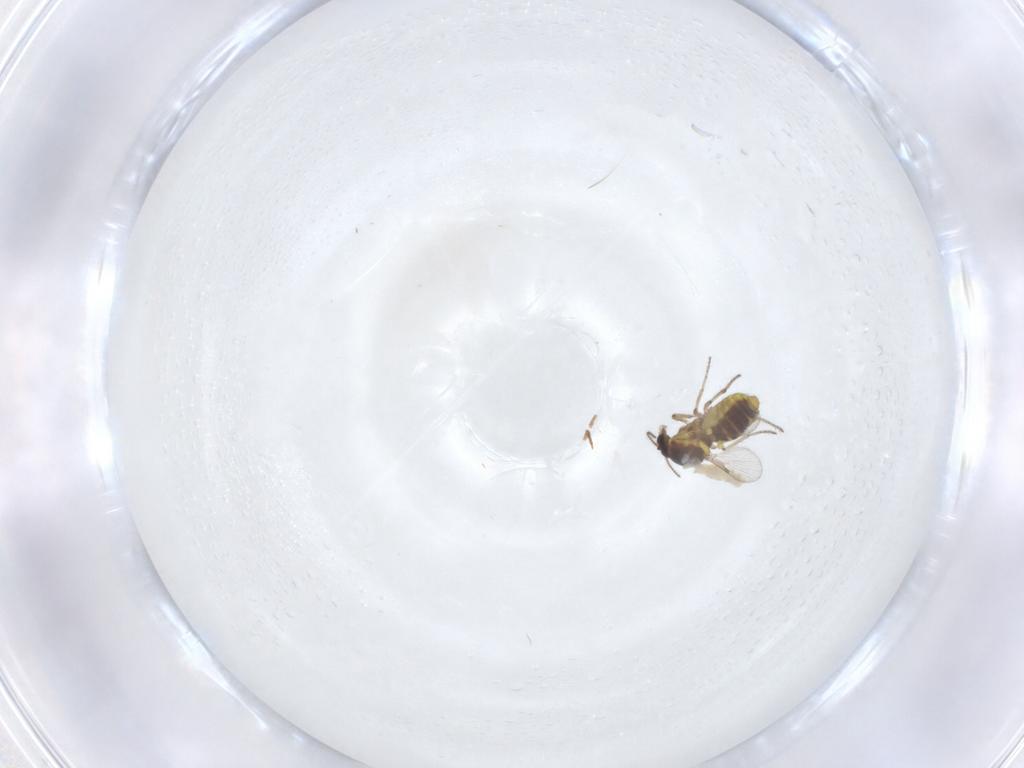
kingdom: Animalia
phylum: Arthropoda
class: Insecta
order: Diptera
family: Ceratopogonidae
